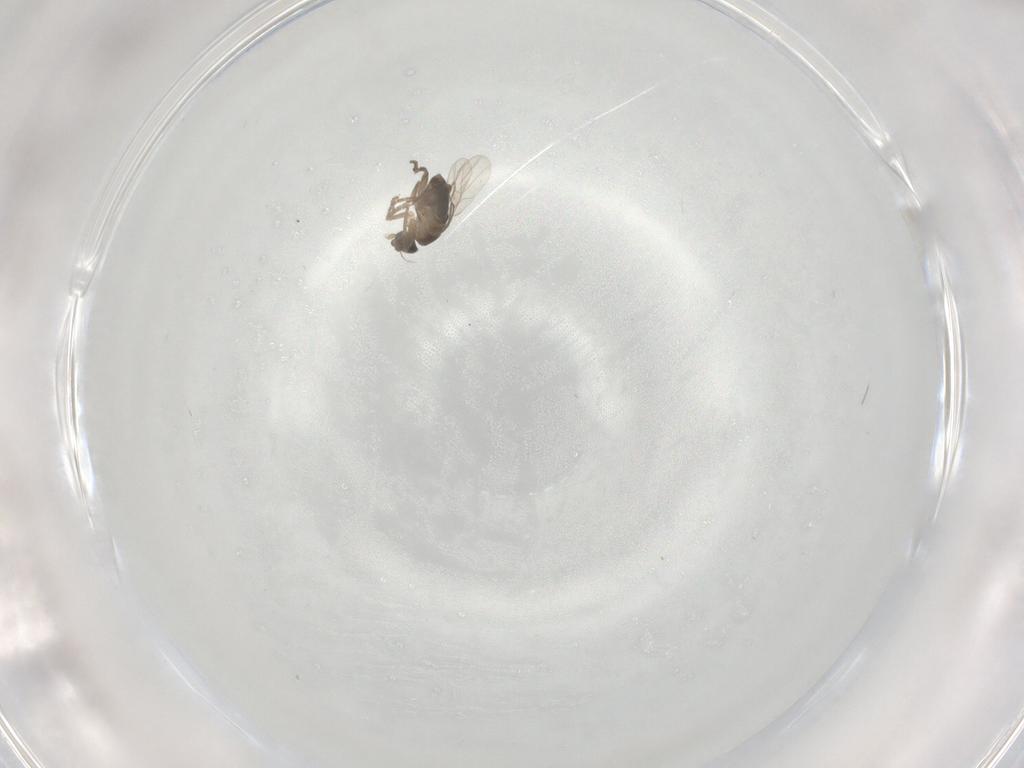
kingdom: Animalia
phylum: Arthropoda
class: Insecta
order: Diptera
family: Phoridae
